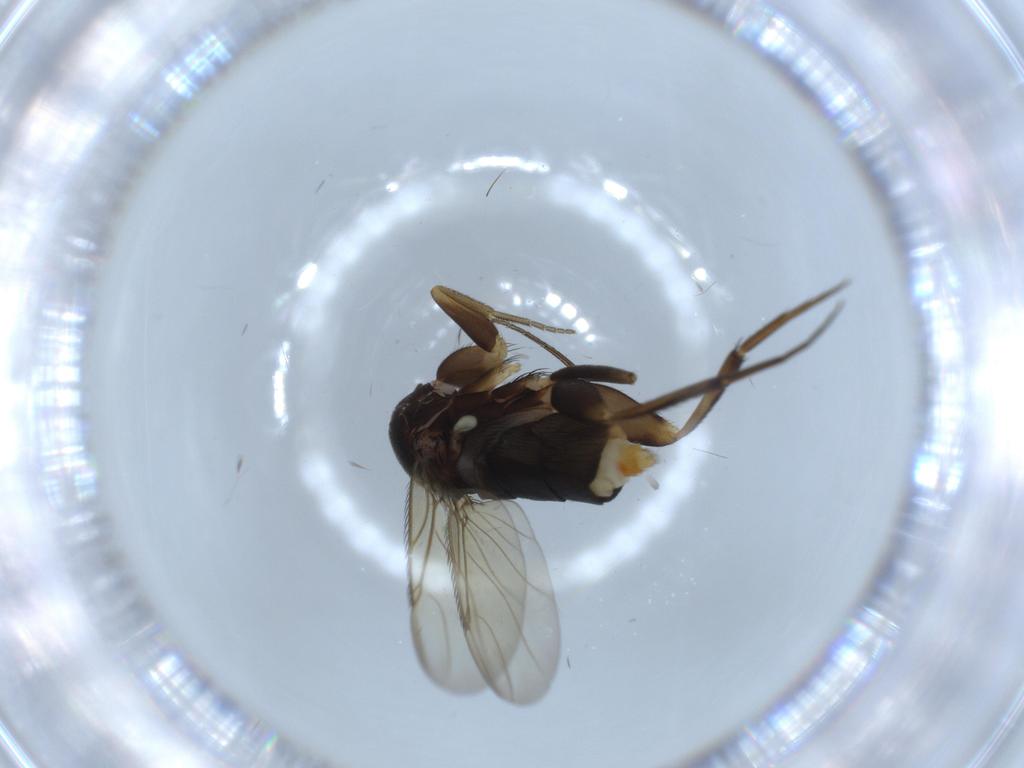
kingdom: Animalia
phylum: Arthropoda
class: Insecta
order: Diptera
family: Phoridae
